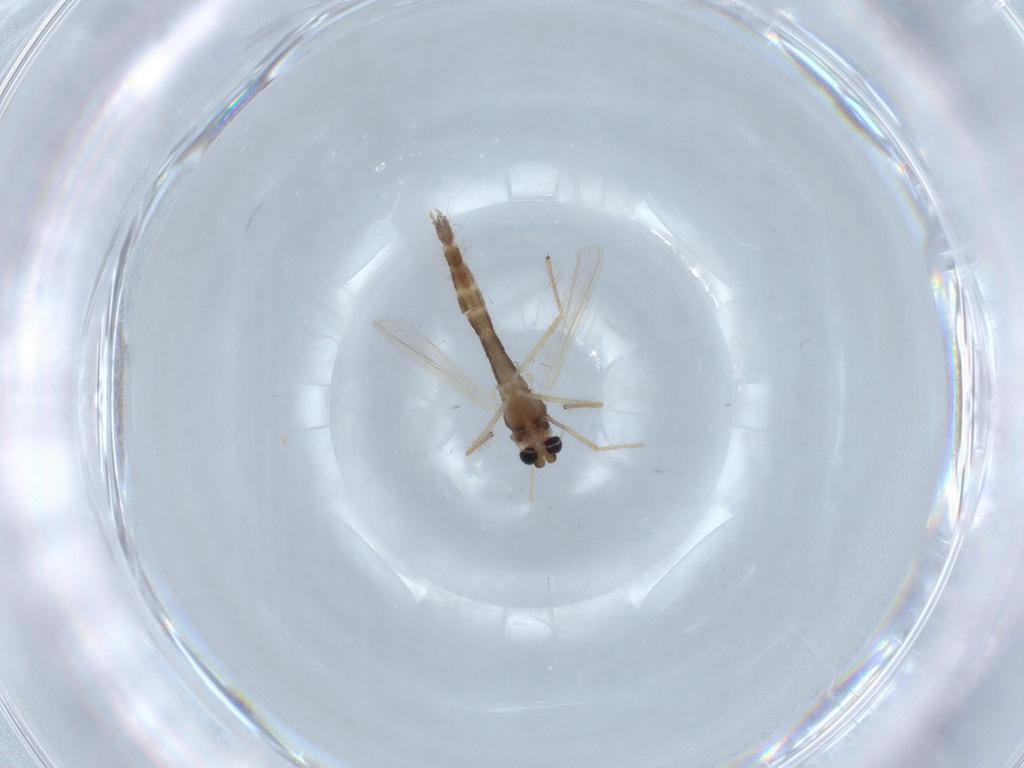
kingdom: Animalia
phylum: Arthropoda
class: Insecta
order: Diptera
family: Chironomidae
